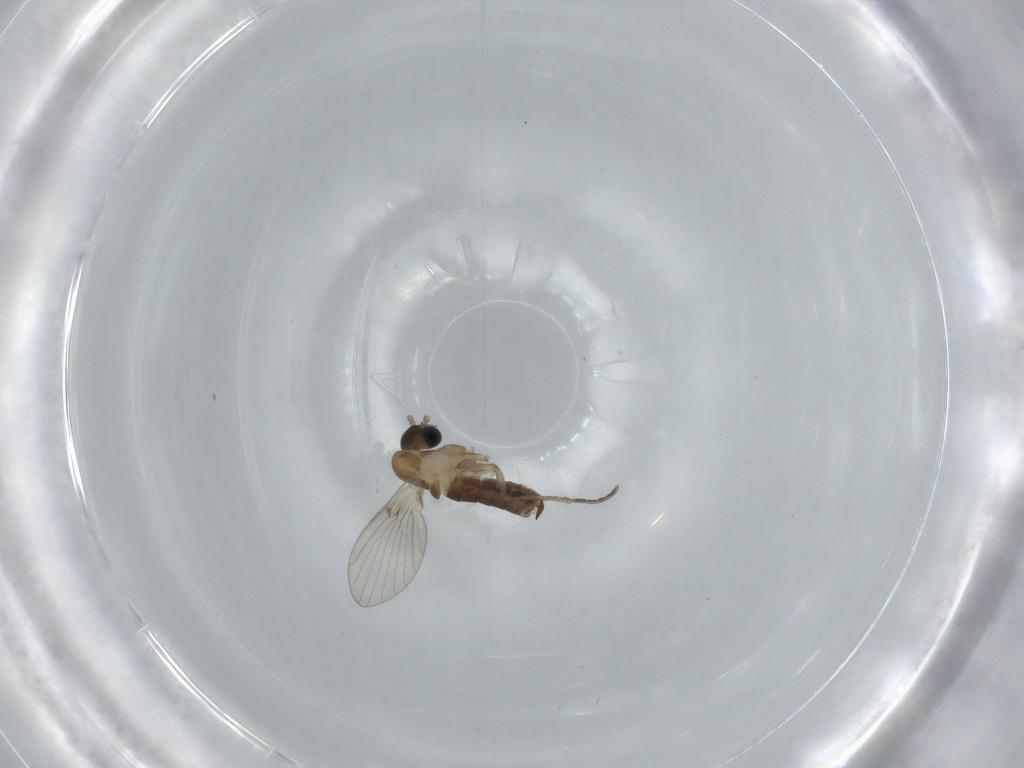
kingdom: Animalia
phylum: Arthropoda
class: Insecta
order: Diptera
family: Psychodidae
